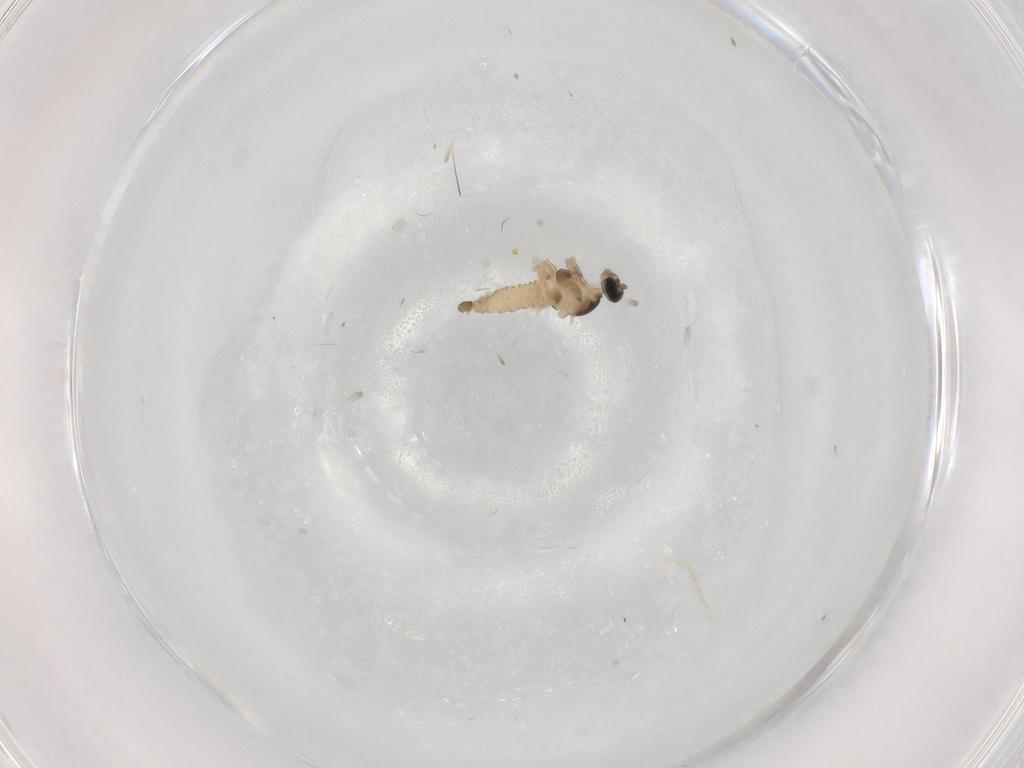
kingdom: Animalia
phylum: Arthropoda
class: Insecta
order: Diptera
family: Cecidomyiidae
